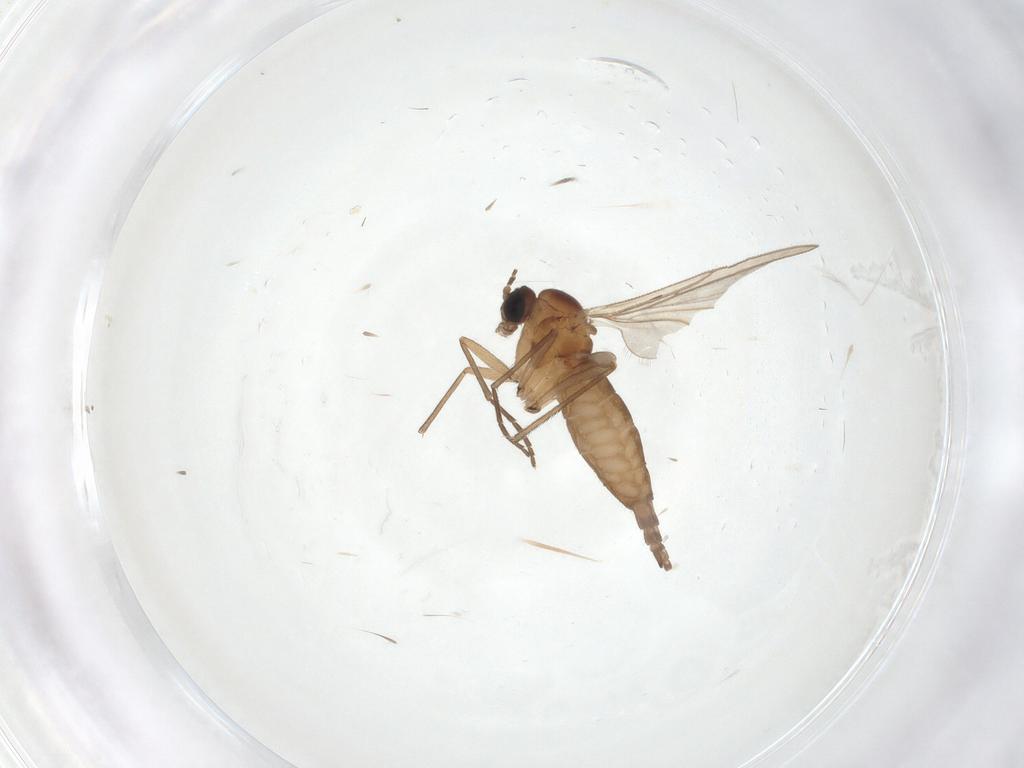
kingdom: Animalia
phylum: Arthropoda
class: Insecta
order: Diptera
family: Sciaridae
